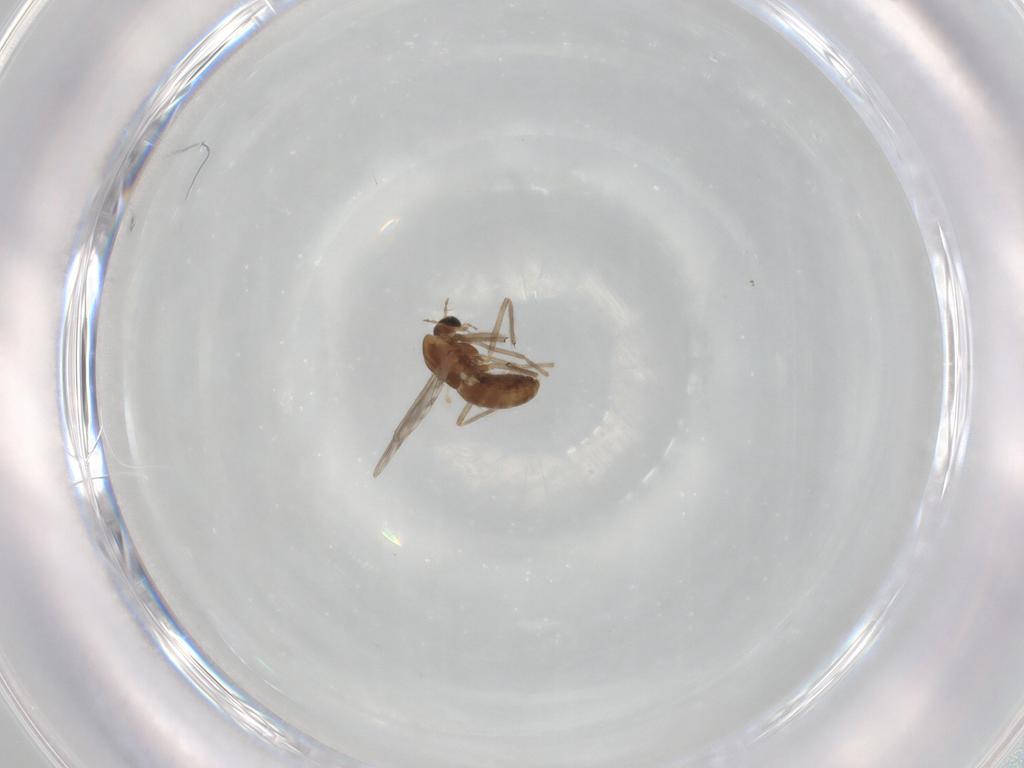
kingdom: Animalia
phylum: Arthropoda
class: Insecta
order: Diptera
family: Chironomidae
